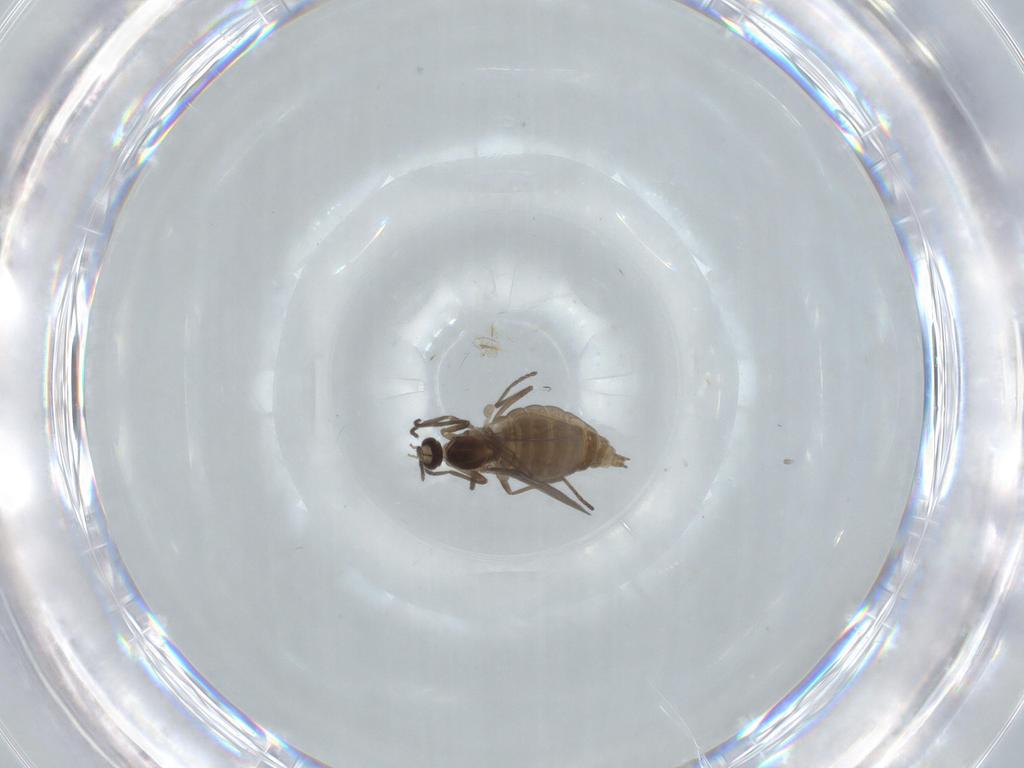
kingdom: Animalia
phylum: Arthropoda
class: Insecta
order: Diptera
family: Cecidomyiidae
